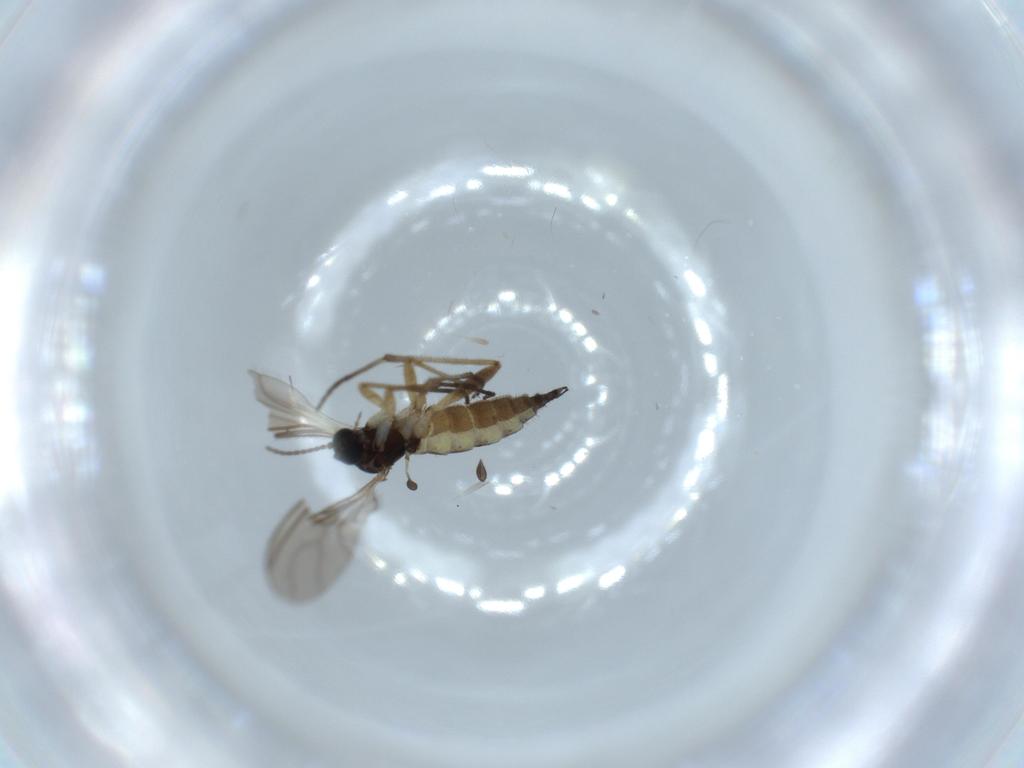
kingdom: Animalia
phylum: Arthropoda
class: Insecta
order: Diptera
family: Sciaridae
